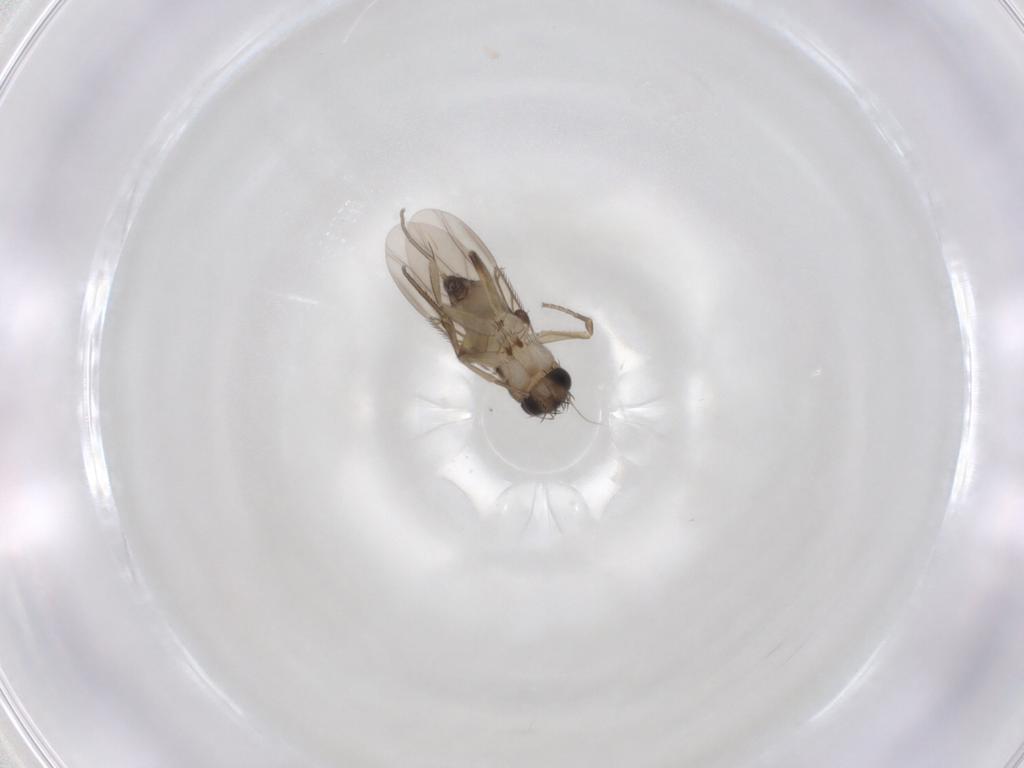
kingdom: Animalia
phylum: Arthropoda
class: Insecta
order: Diptera
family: Phoridae
